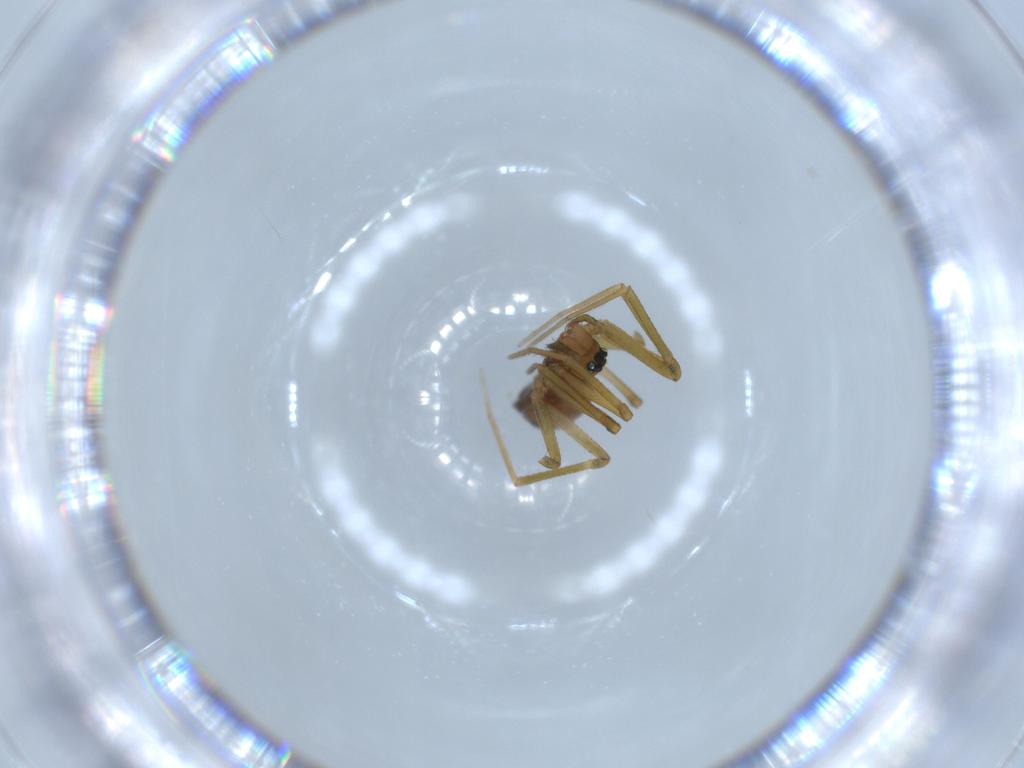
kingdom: Animalia
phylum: Arthropoda
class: Arachnida
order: Araneae
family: Linyphiidae
